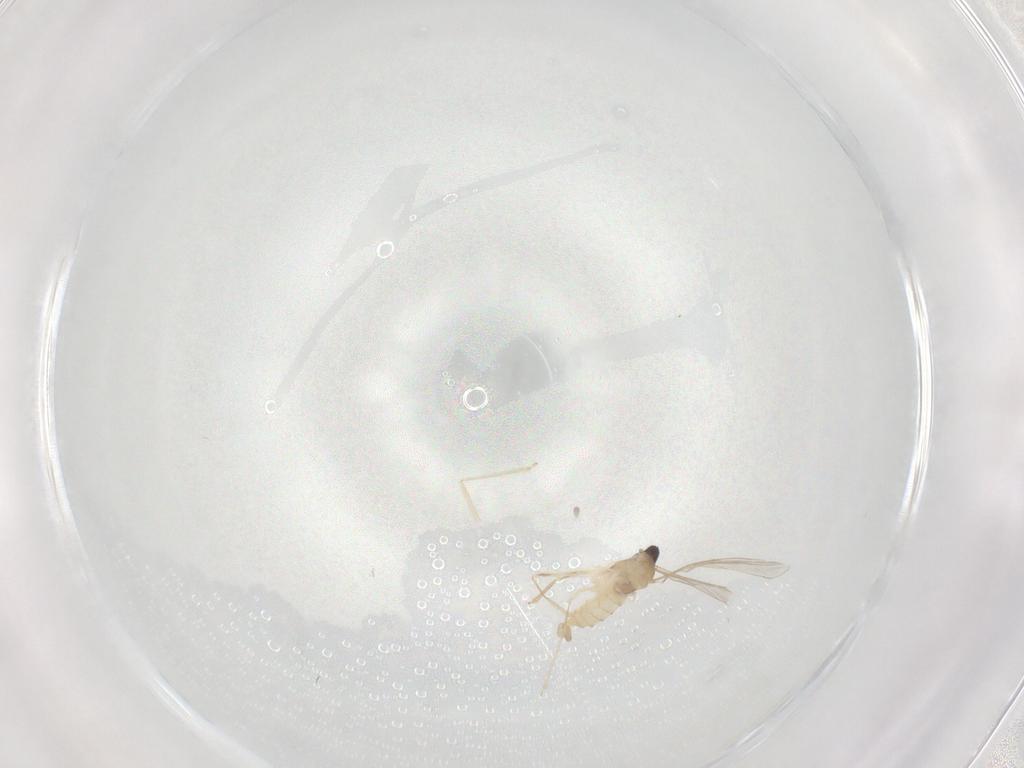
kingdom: Animalia
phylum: Arthropoda
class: Insecta
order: Diptera
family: Cecidomyiidae
